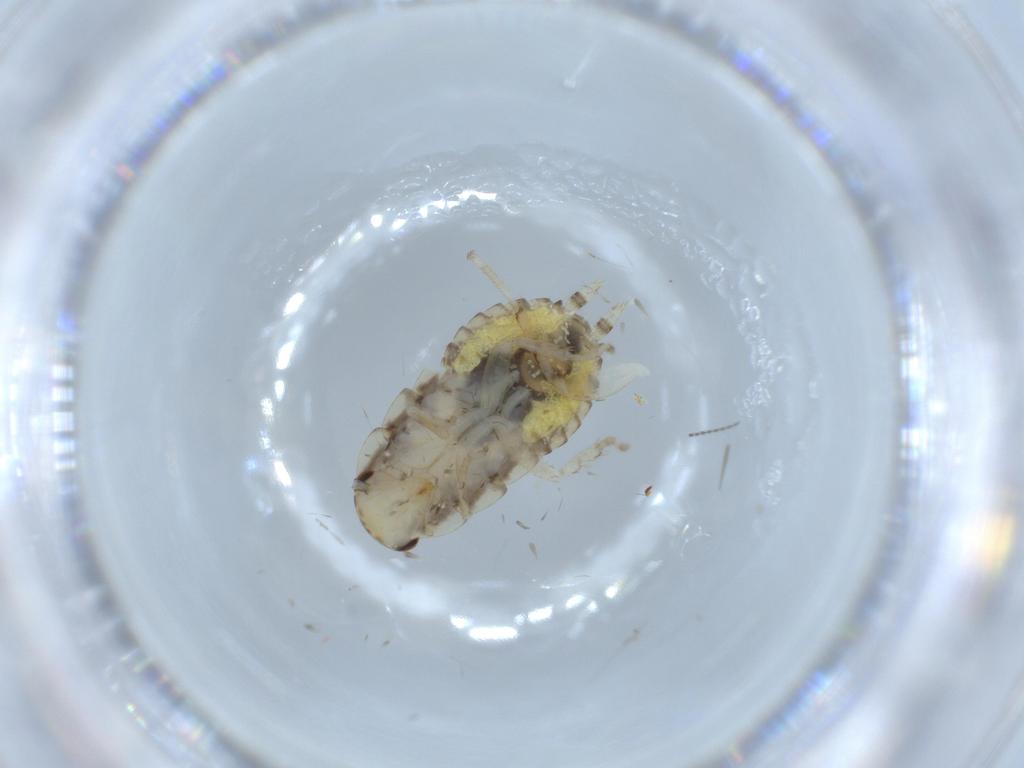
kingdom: Animalia
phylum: Arthropoda
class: Insecta
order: Blattodea
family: Ectobiidae
